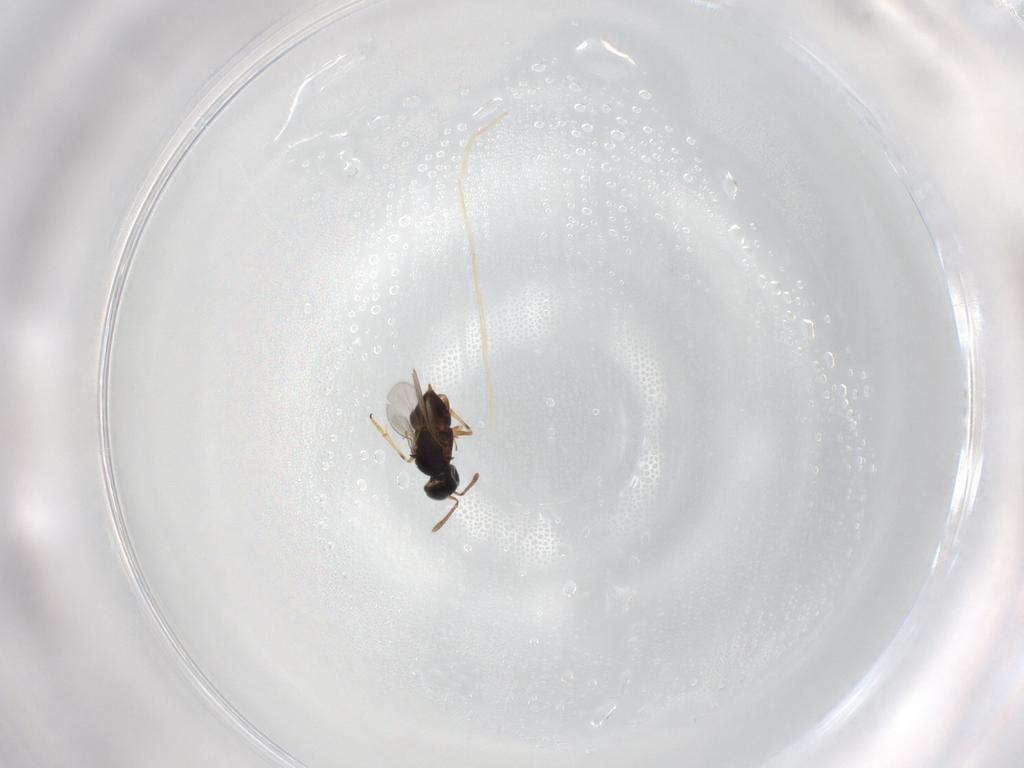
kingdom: Animalia
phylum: Arthropoda
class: Insecta
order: Hymenoptera
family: Encyrtidae
